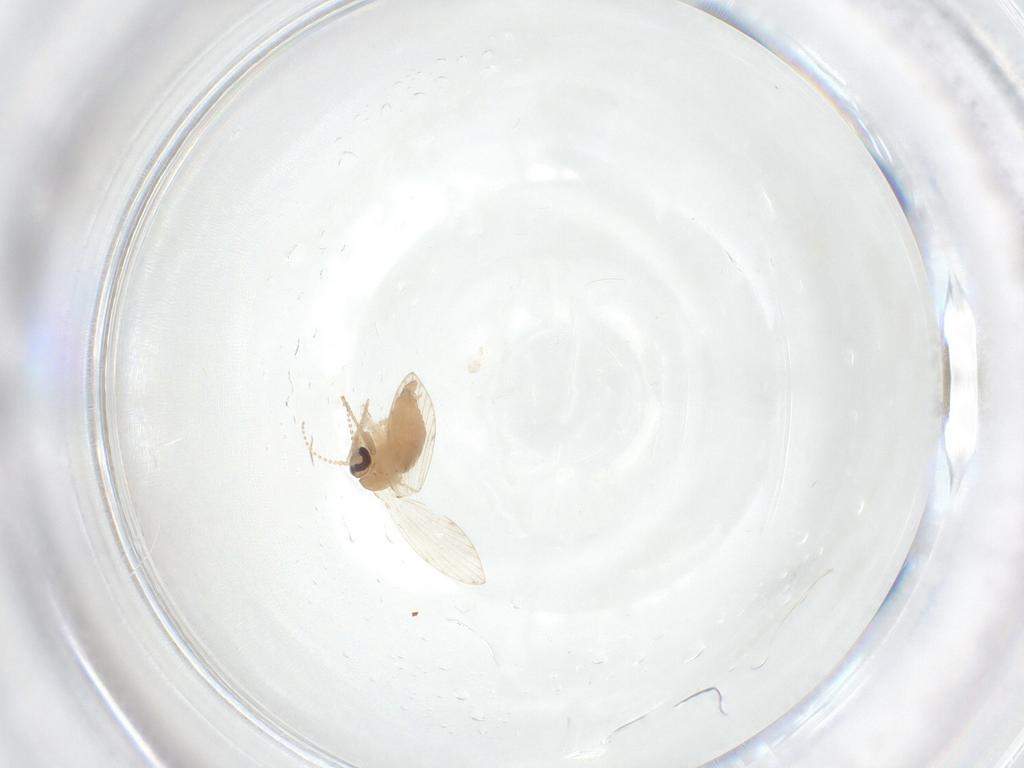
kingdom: Animalia
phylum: Arthropoda
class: Insecta
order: Diptera
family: Psychodidae
